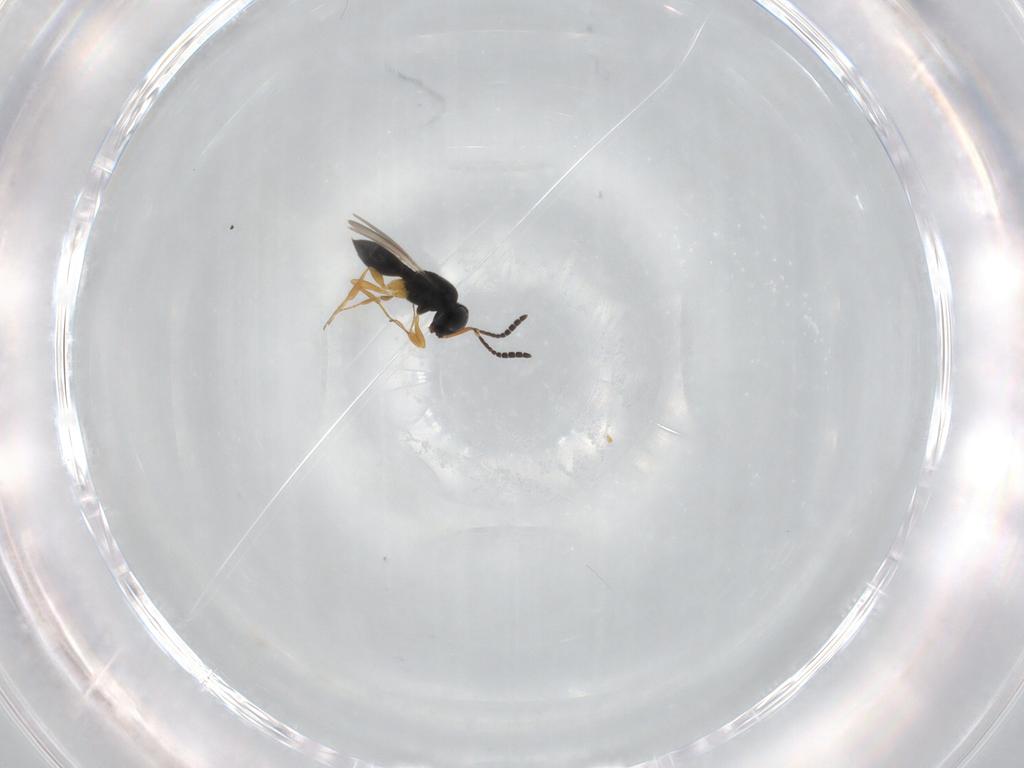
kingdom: Animalia
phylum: Arthropoda
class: Insecta
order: Hymenoptera
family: Scelionidae
